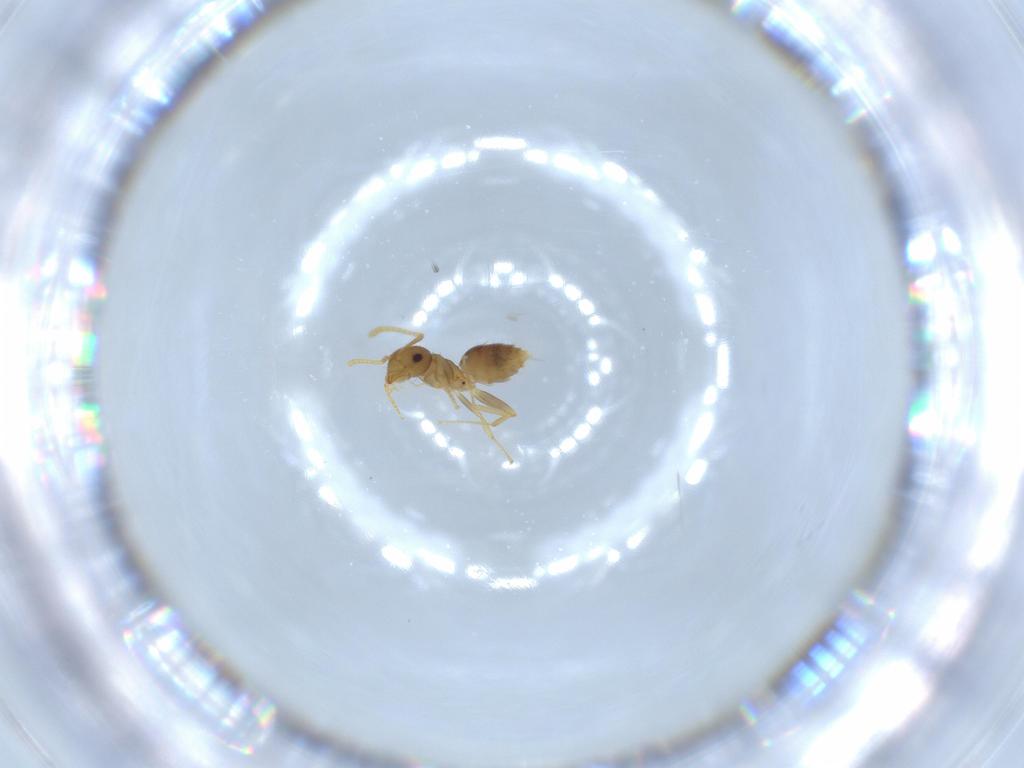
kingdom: Animalia
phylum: Arthropoda
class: Insecta
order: Hymenoptera
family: Formicidae
